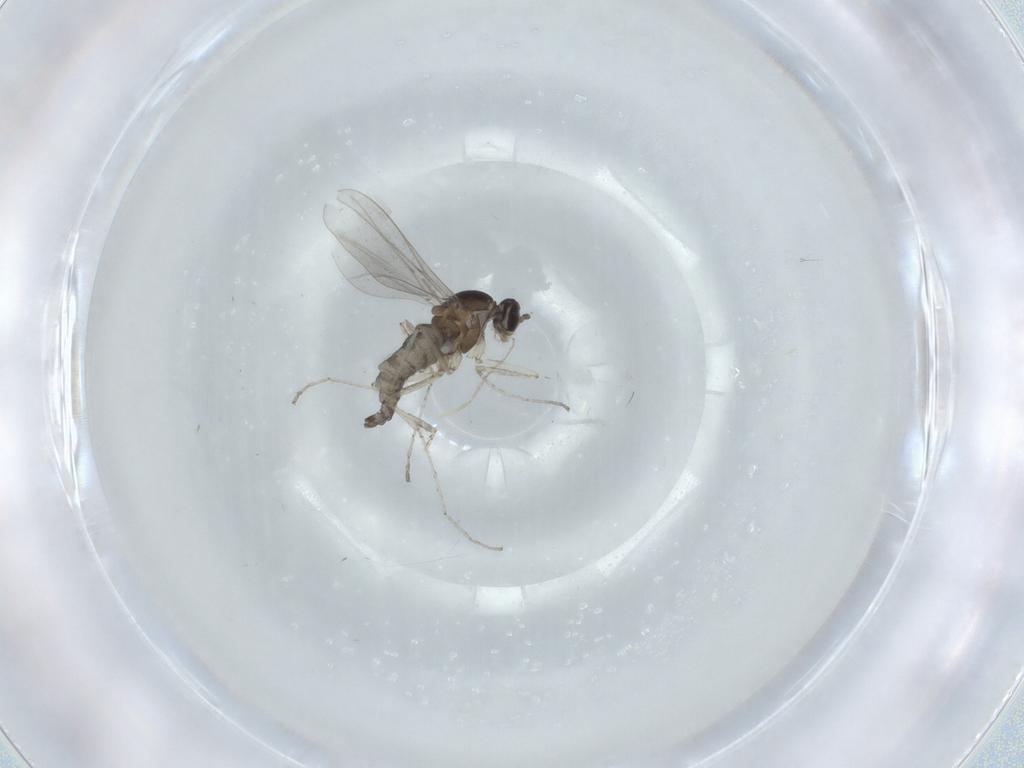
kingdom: Animalia
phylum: Arthropoda
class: Insecta
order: Diptera
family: Cecidomyiidae
